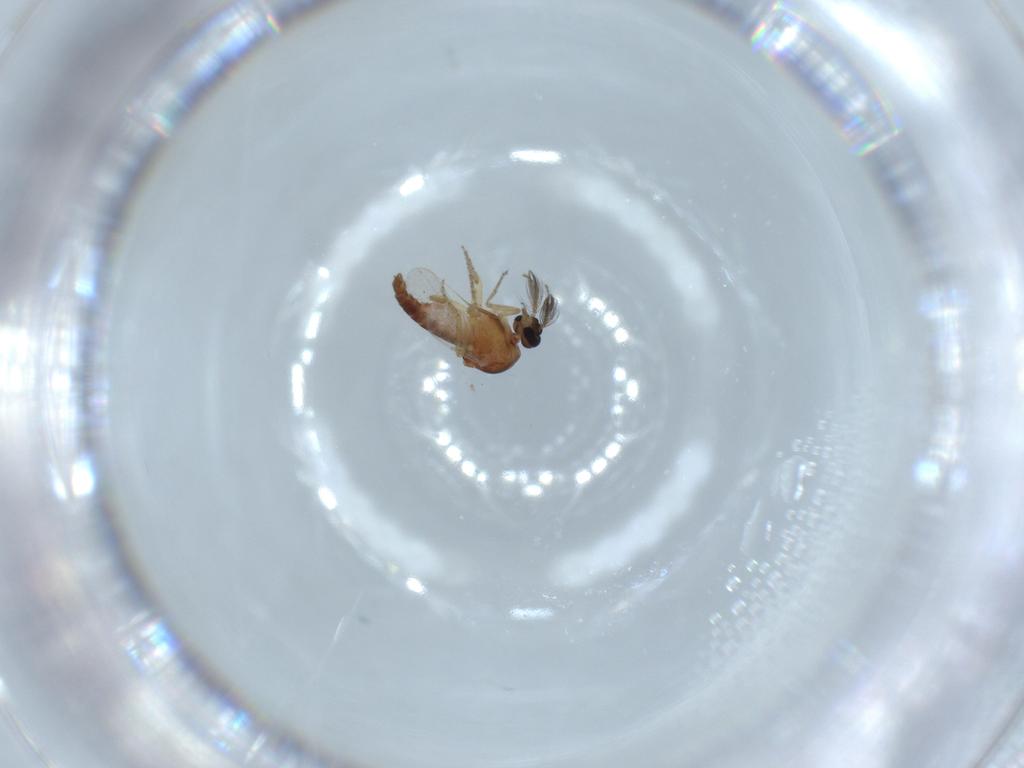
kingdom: Animalia
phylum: Arthropoda
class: Insecta
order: Diptera
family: Ceratopogonidae
